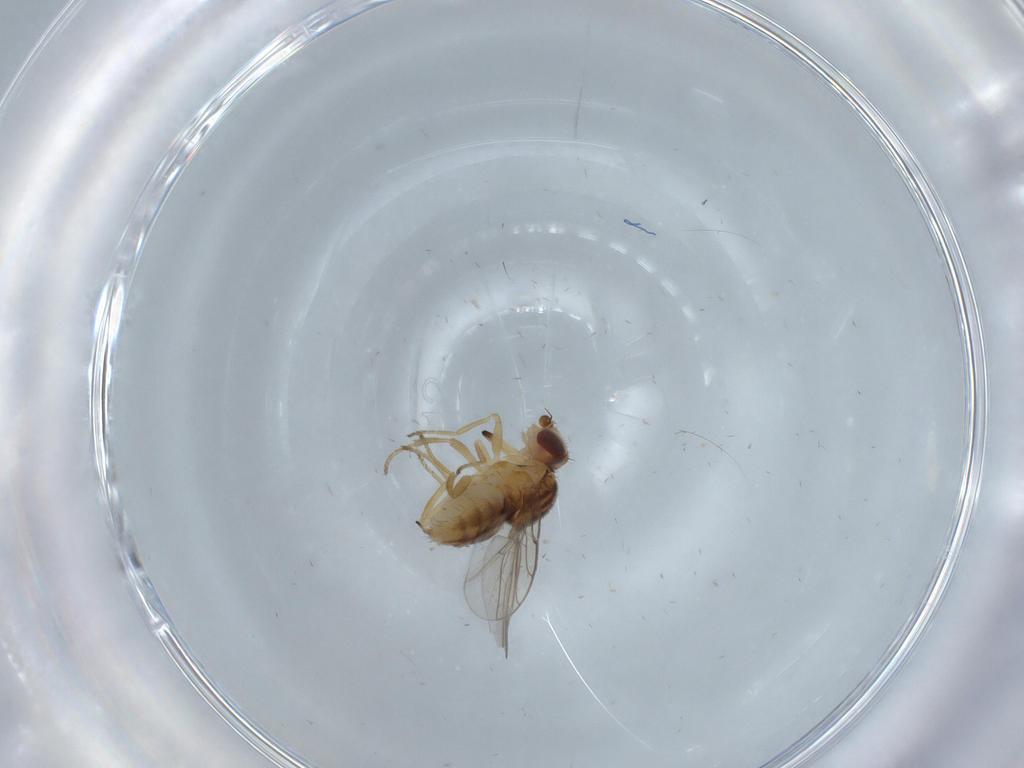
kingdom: Animalia
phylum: Arthropoda
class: Insecta
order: Diptera
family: Chloropidae
